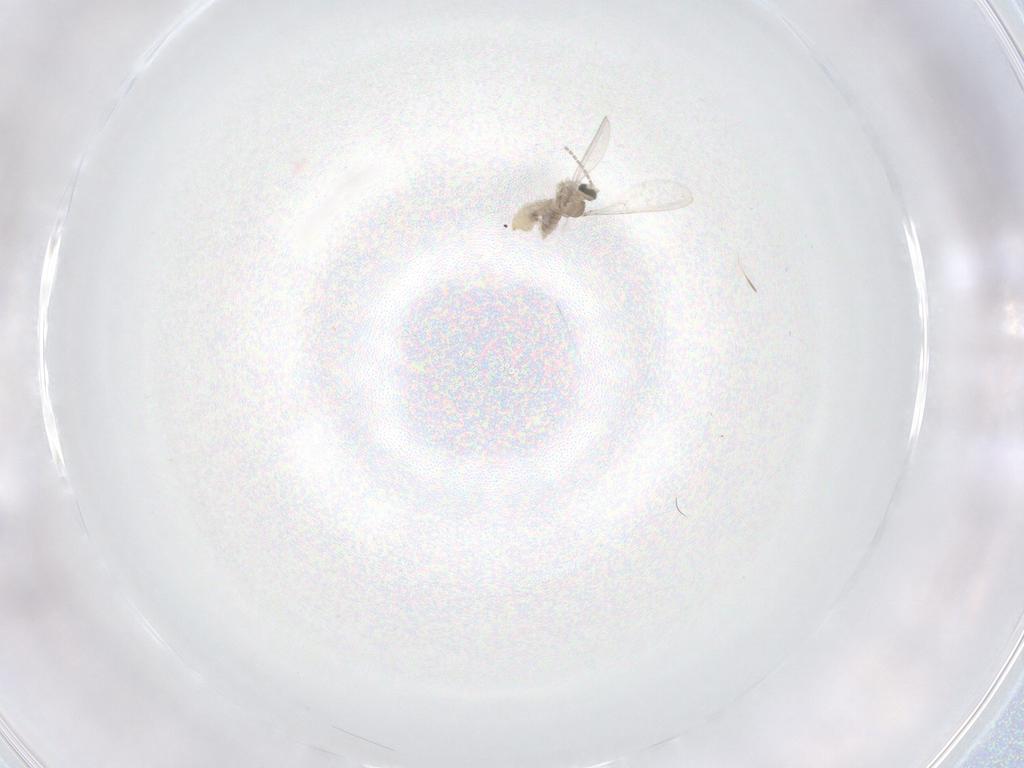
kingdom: Animalia
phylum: Arthropoda
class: Insecta
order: Diptera
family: Cecidomyiidae
